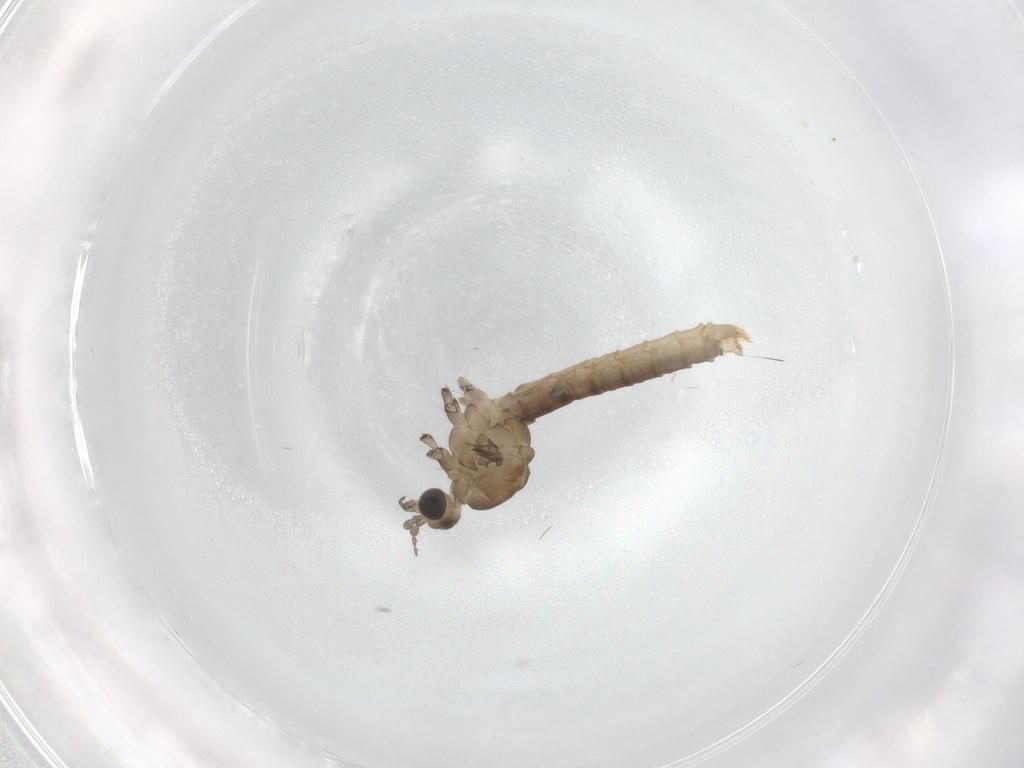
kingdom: Animalia
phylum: Arthropoda
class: Insecta
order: Diptera
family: Limoniidae
